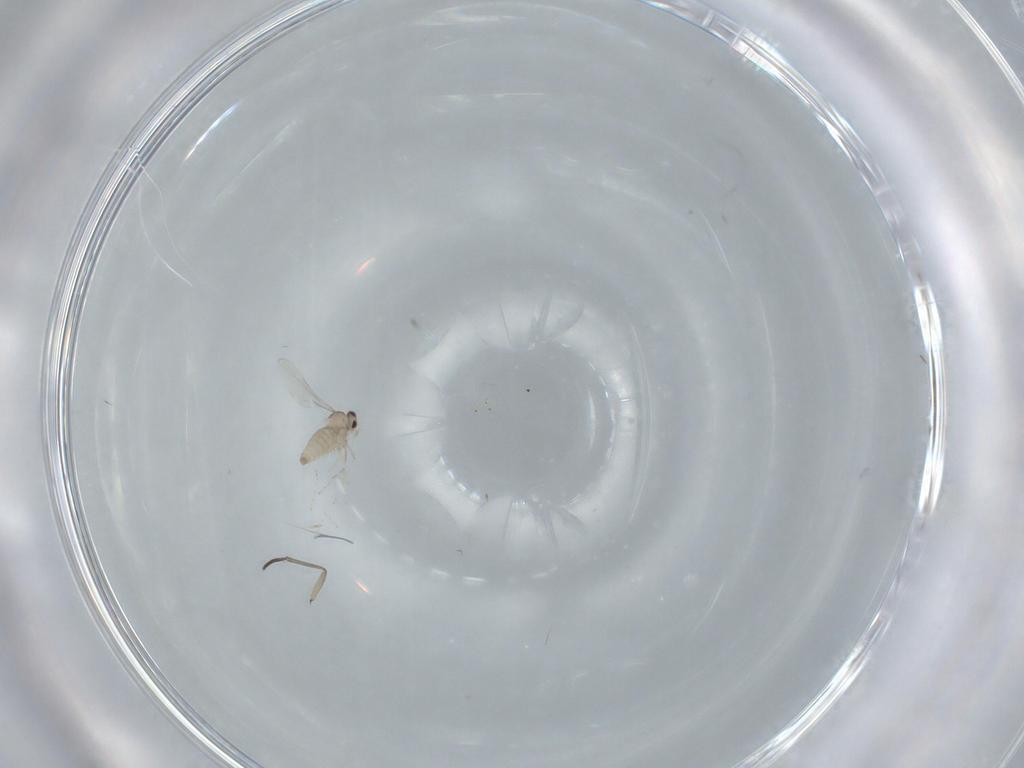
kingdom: Animalia
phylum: Arthropoda
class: Insecta
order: Diptera
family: Cecidomyiidae
